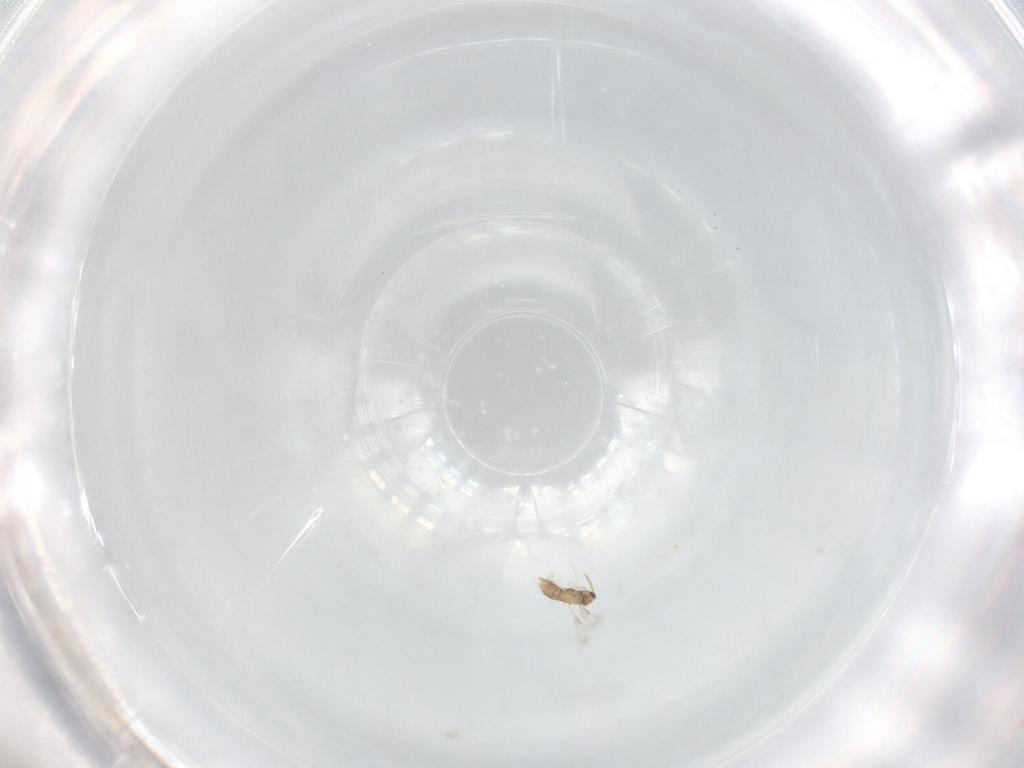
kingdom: Animalia
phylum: Arthropoda
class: Insecta
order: Hymenoptera
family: Scelionidae
